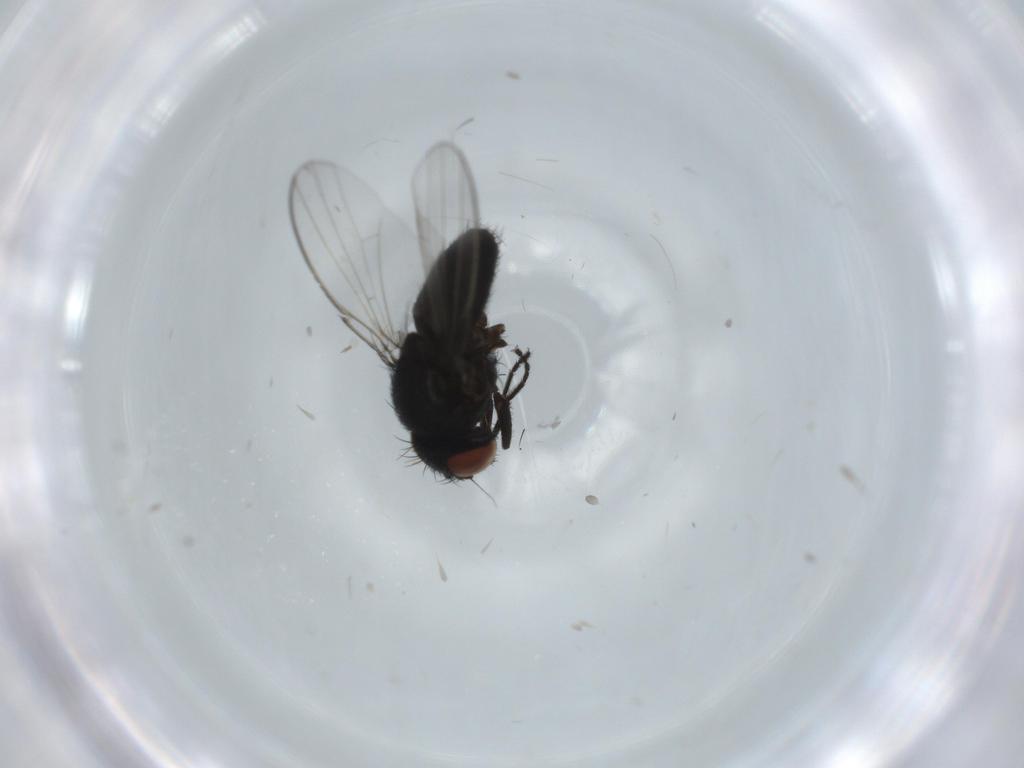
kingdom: Animalia
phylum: Arthropoda
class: Insecta
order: Diptera
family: Milichiidae
